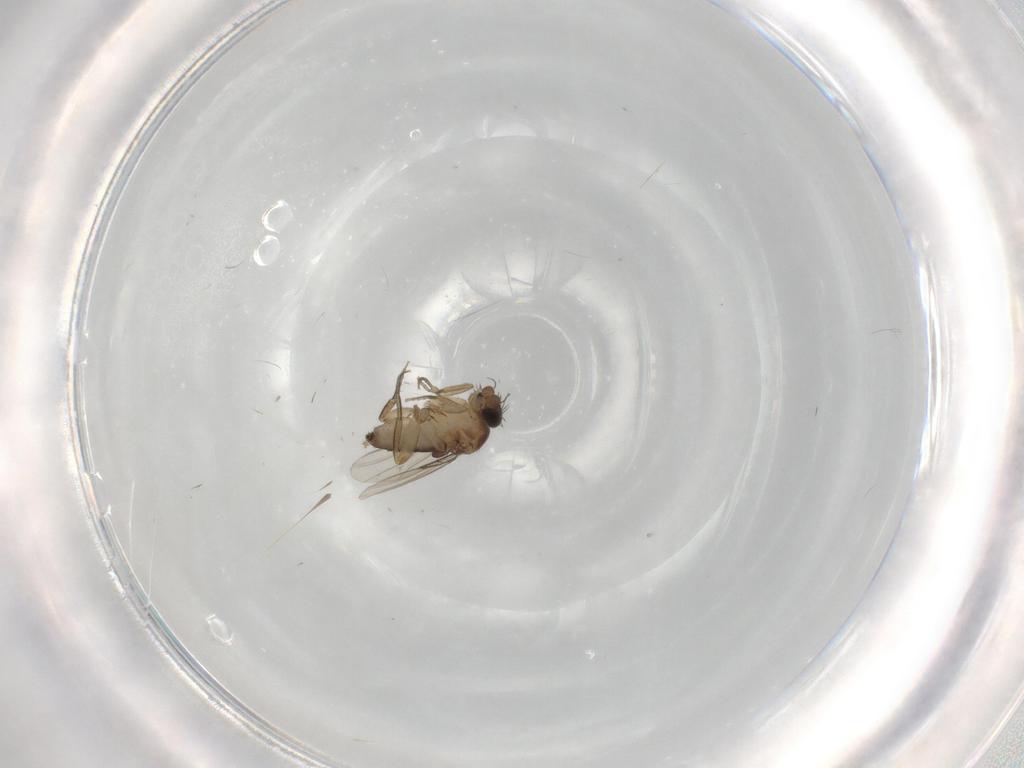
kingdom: Animalia
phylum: Arthropoda
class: Insecta
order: Diptera
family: Phoridae
